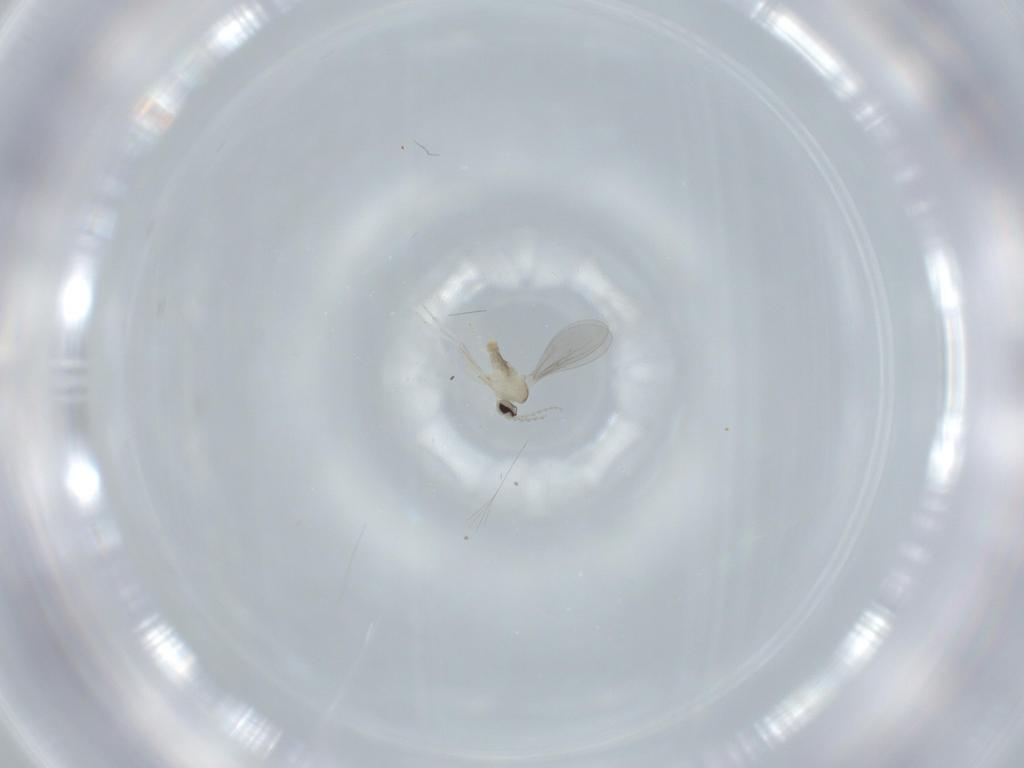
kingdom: Animalia
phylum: Arthropoda
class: Insecta
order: Diptera
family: Cecidomyiidae
